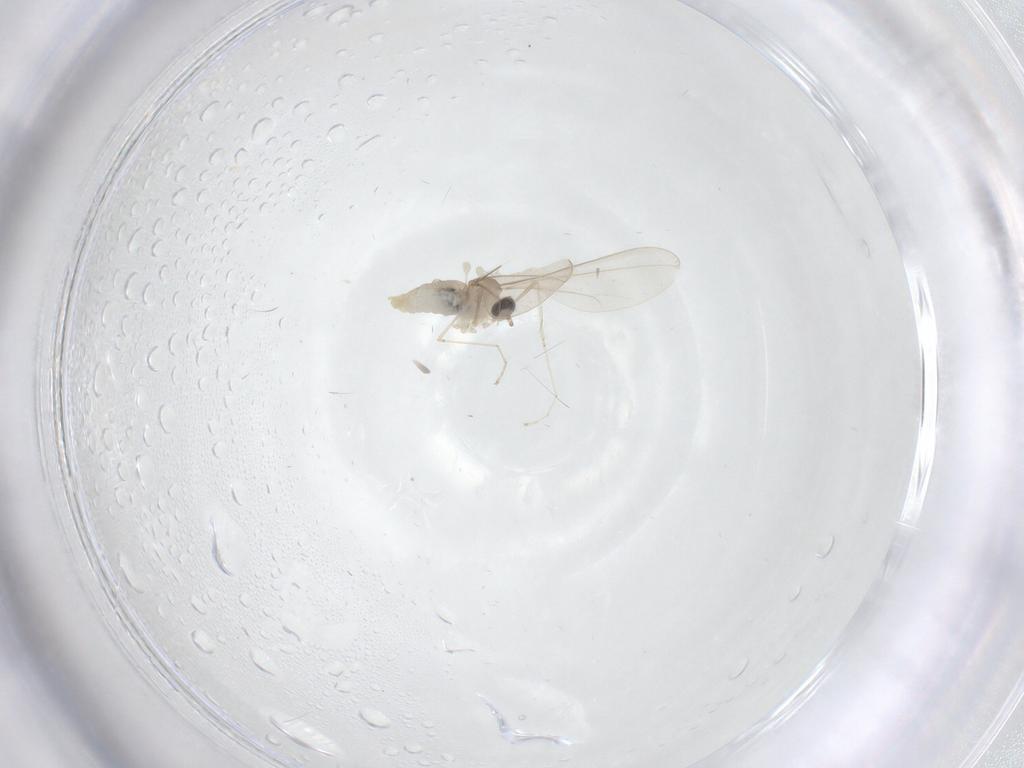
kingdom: Animalia
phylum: Arthropoda
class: Insecta
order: Diptera
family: Cecidomyiidae
